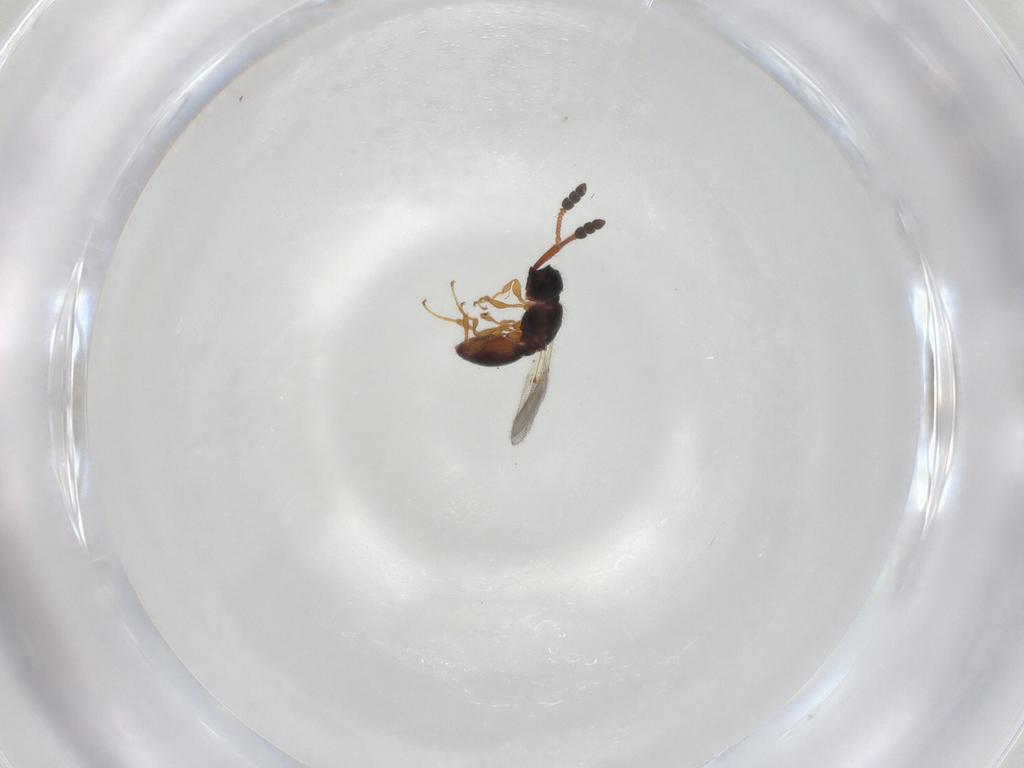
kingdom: Animalia
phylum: Arthropoda
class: Insecta
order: Hymenoptera
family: Diapriidae
